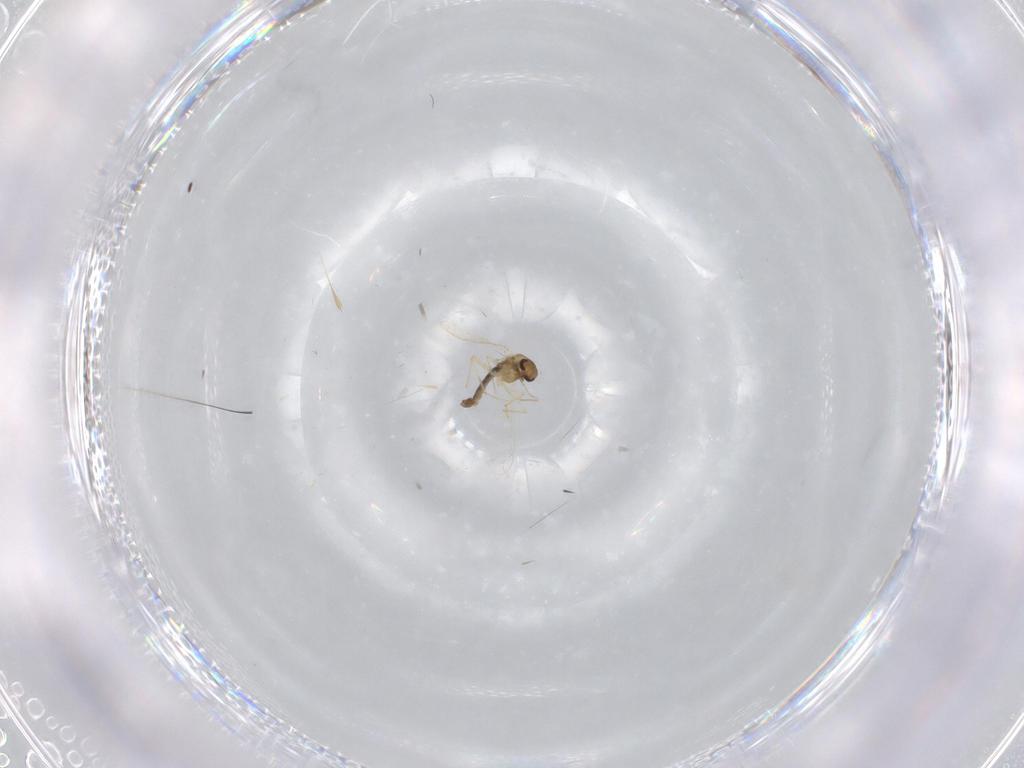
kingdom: Animalia
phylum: Arthropoda
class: Insecta
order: Diptera
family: Chironomidae
